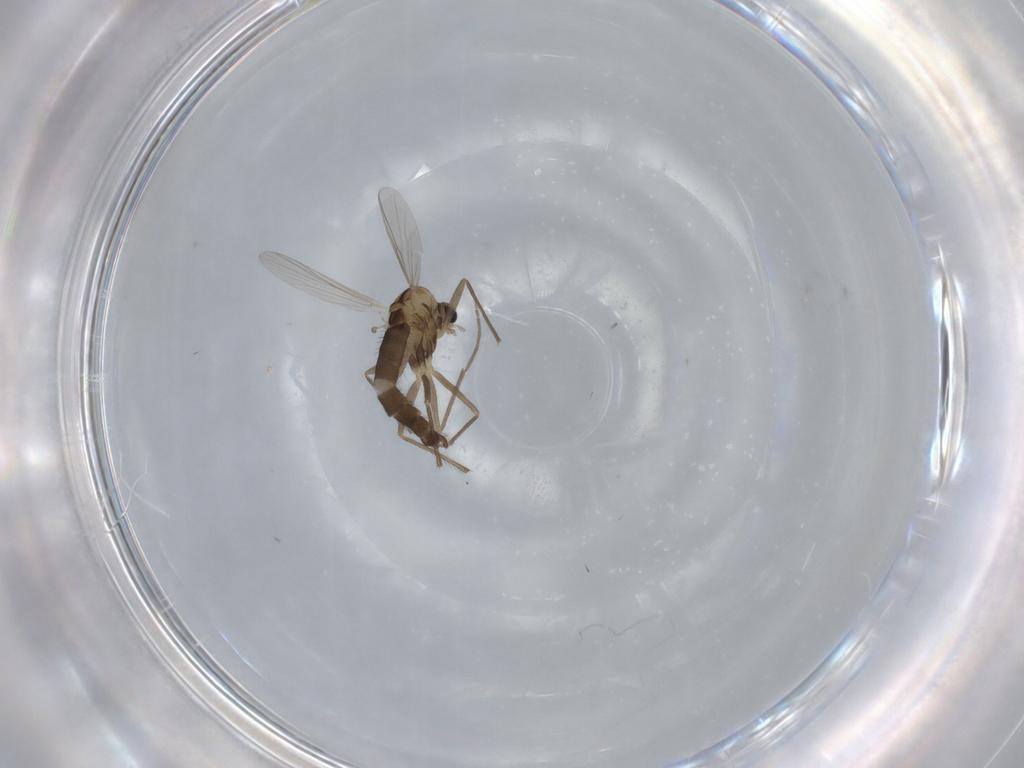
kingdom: Animalia
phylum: Arthropoda
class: Insecta
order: Diptera
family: Chironomidae
